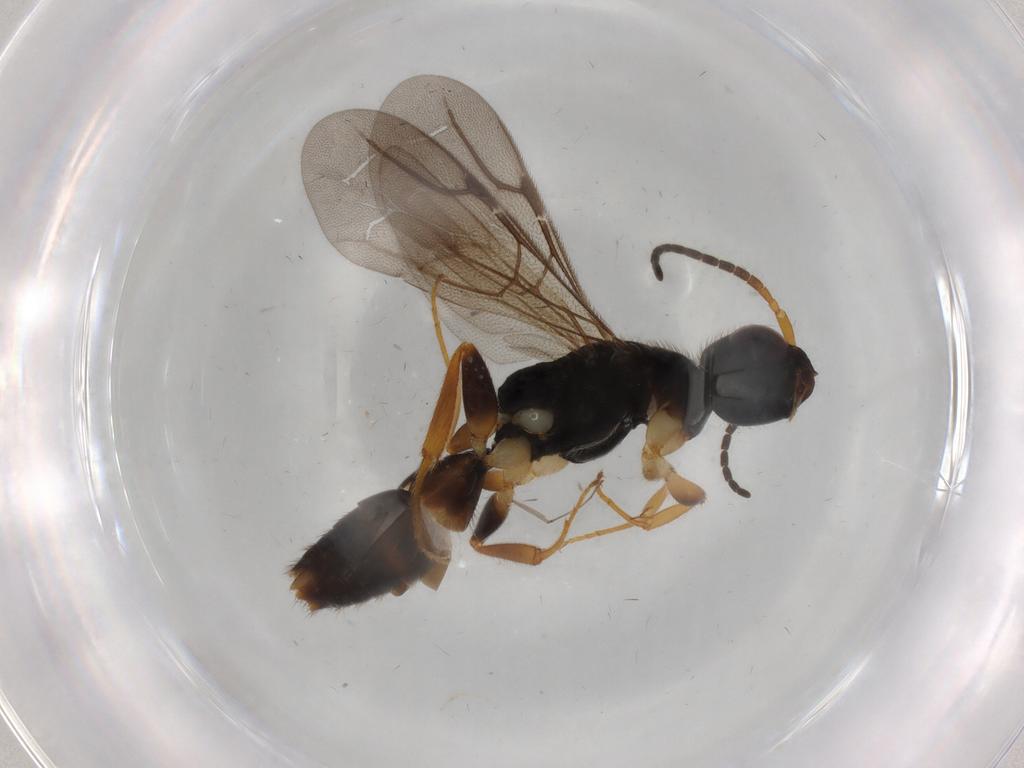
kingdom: Animalia
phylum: Arthropoda
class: Insecta
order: Hymenoptera
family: Bethylidae
